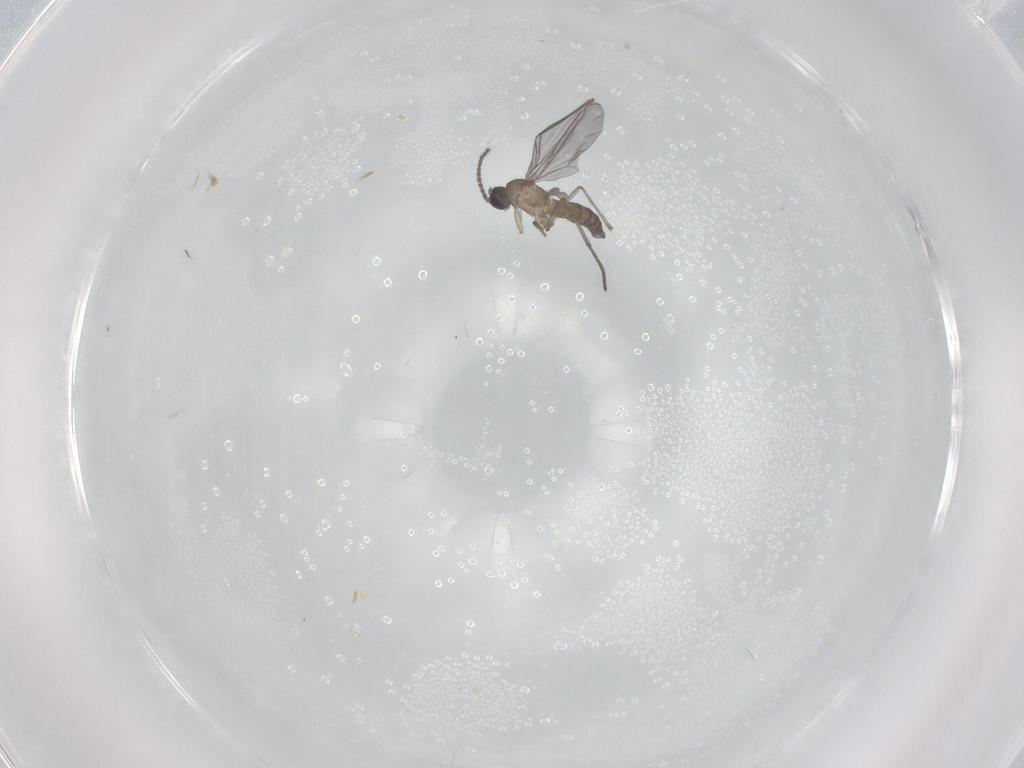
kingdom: Animalia
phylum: Arthropoda
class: Insecta
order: Diptera
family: Sciaridae
